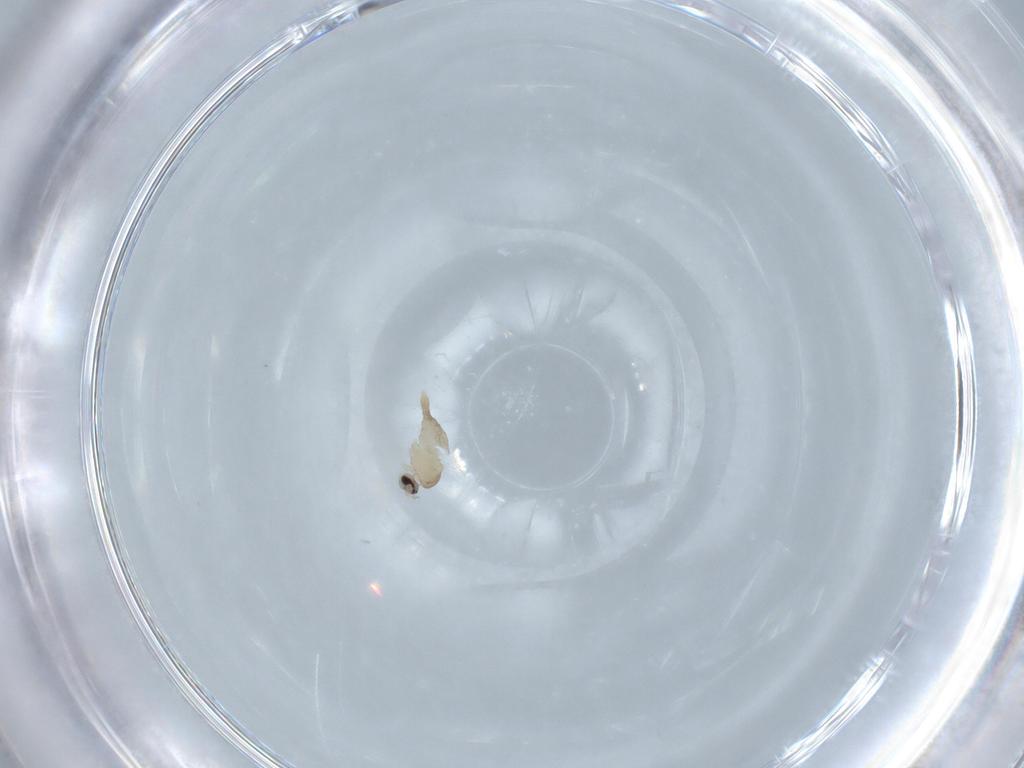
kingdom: Animalia
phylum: Arthropoda
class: Insecta
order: Diptera
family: Cecidomyiidae
